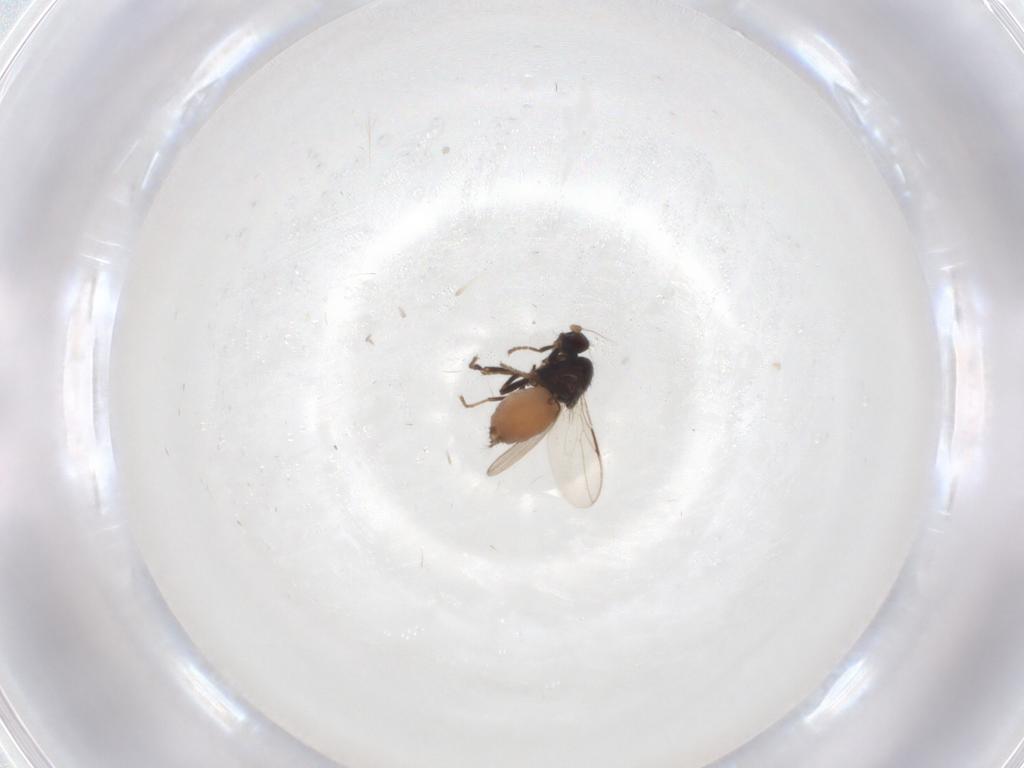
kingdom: Animalia
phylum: Arthropoda
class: Insecta
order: Diptera
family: Sphaeroceridae
